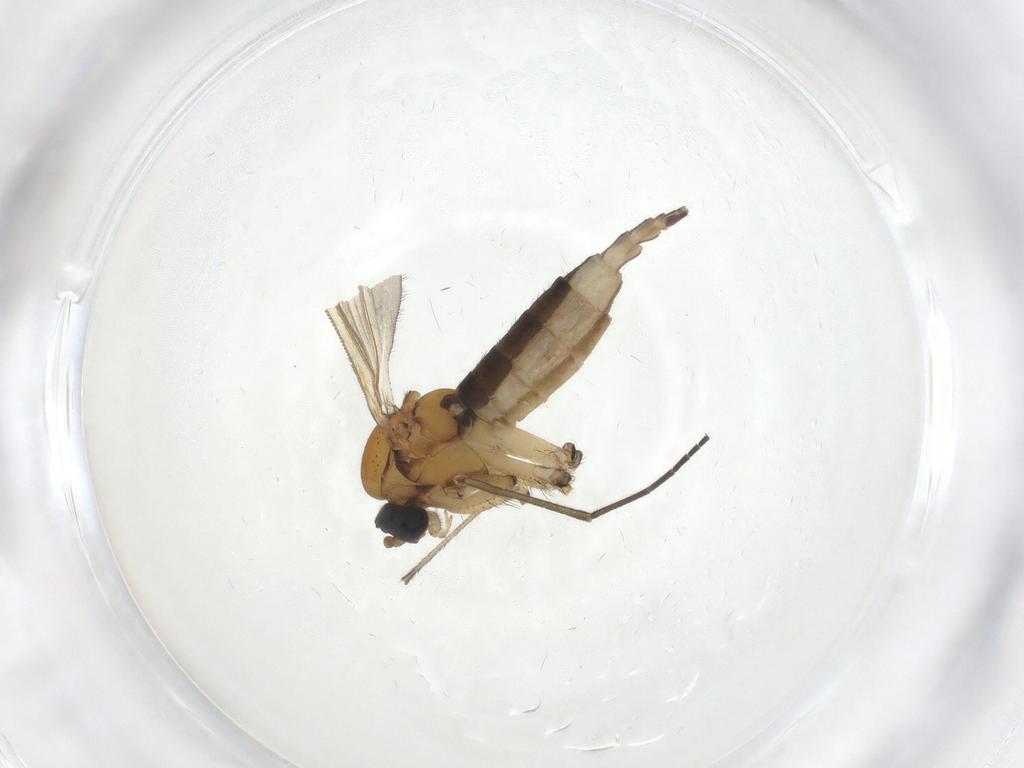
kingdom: Animalia
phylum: Arthropoda
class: Insecta
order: Diptera
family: Sciaridae
